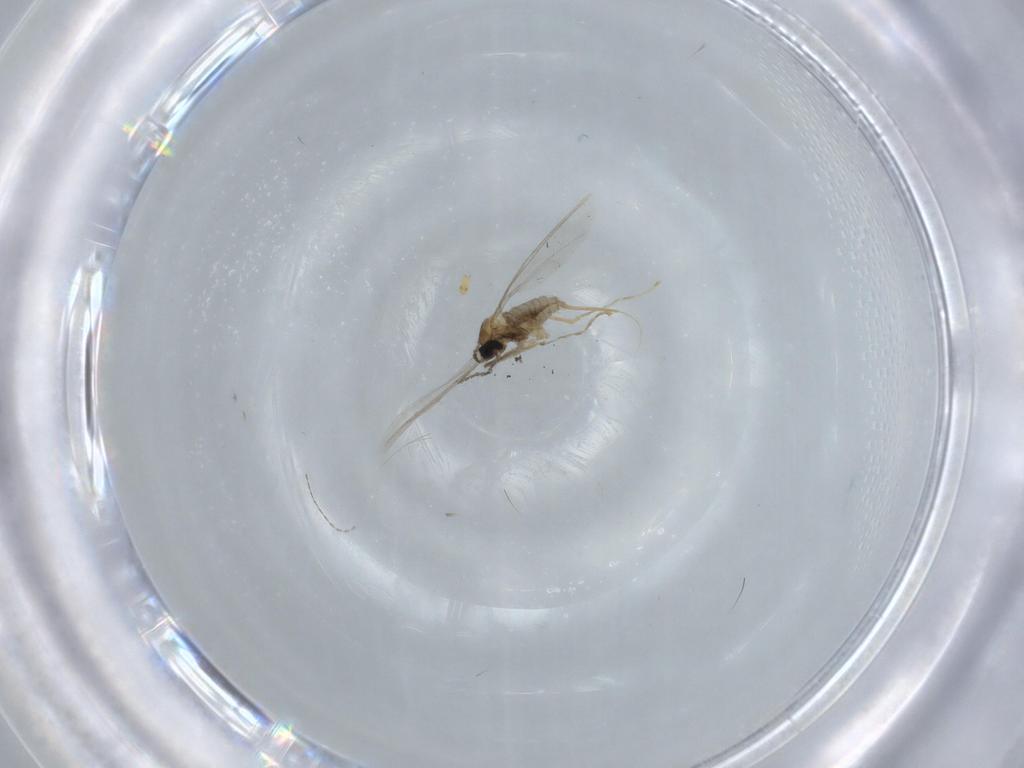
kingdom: Animalia
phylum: Arthropoda
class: Insecta
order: Diptera
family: Cecidomyiidae
